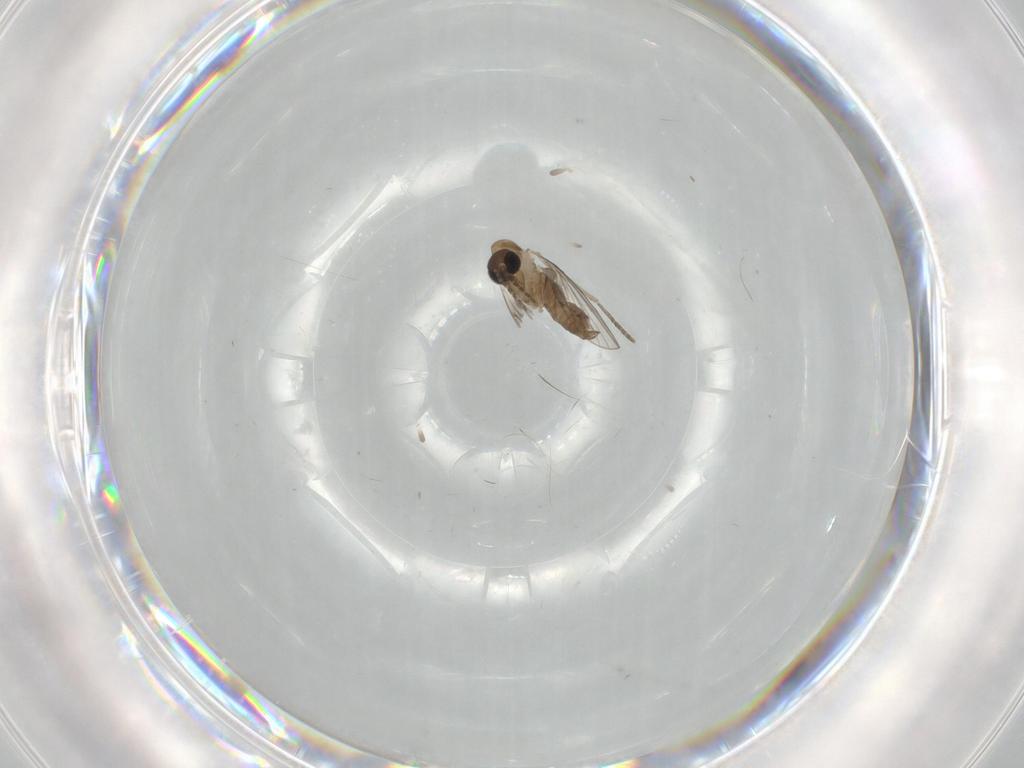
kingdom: Animalia
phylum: Arthropoda
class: Insecta
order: Diptera
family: Psychodidae
